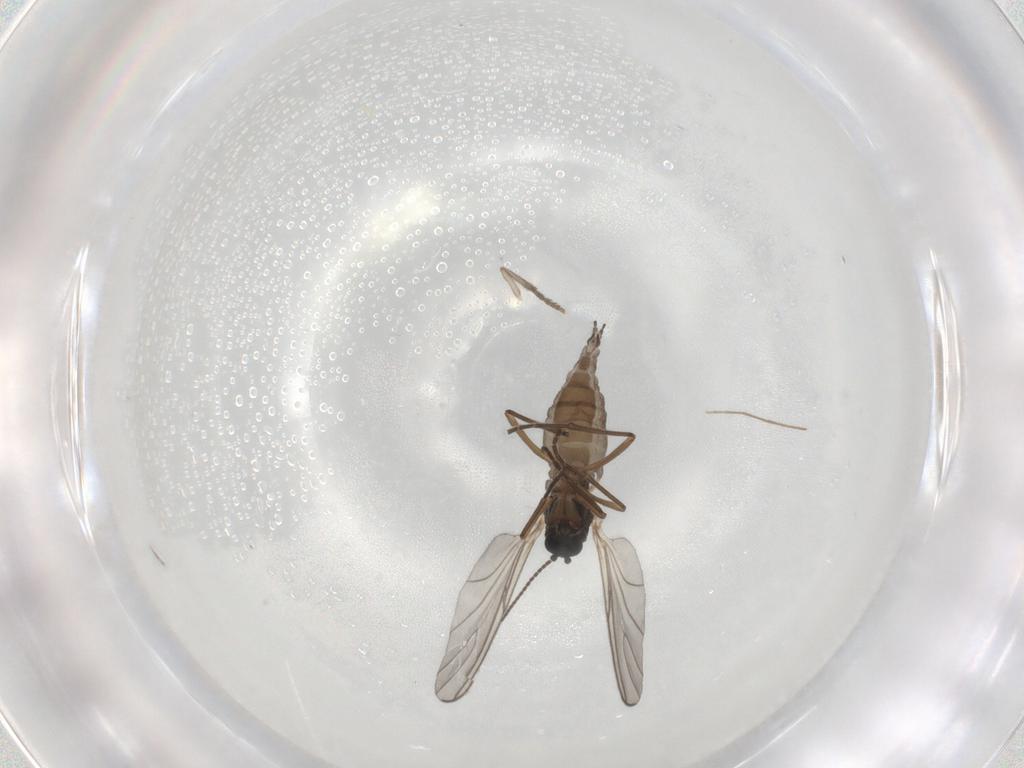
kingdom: Animalia
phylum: Arthropoda
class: Insecta
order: Diptera
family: Sciaridae
